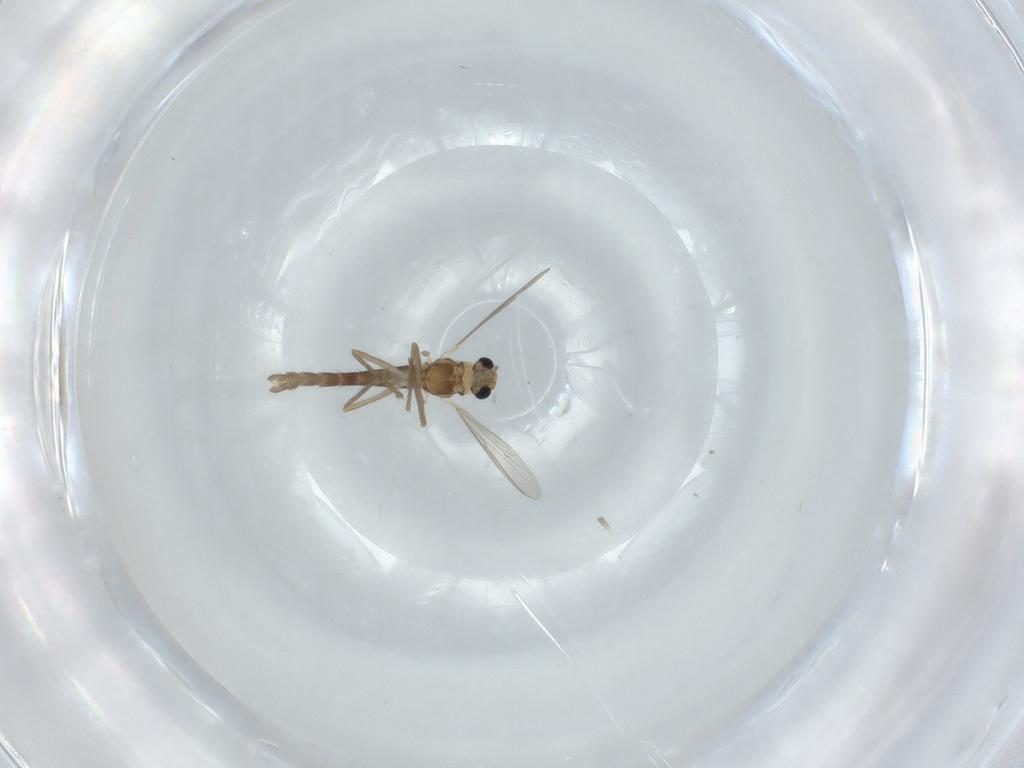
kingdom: Animalia
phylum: Arthropoda
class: Insecta
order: Diptera
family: Chironomidae
